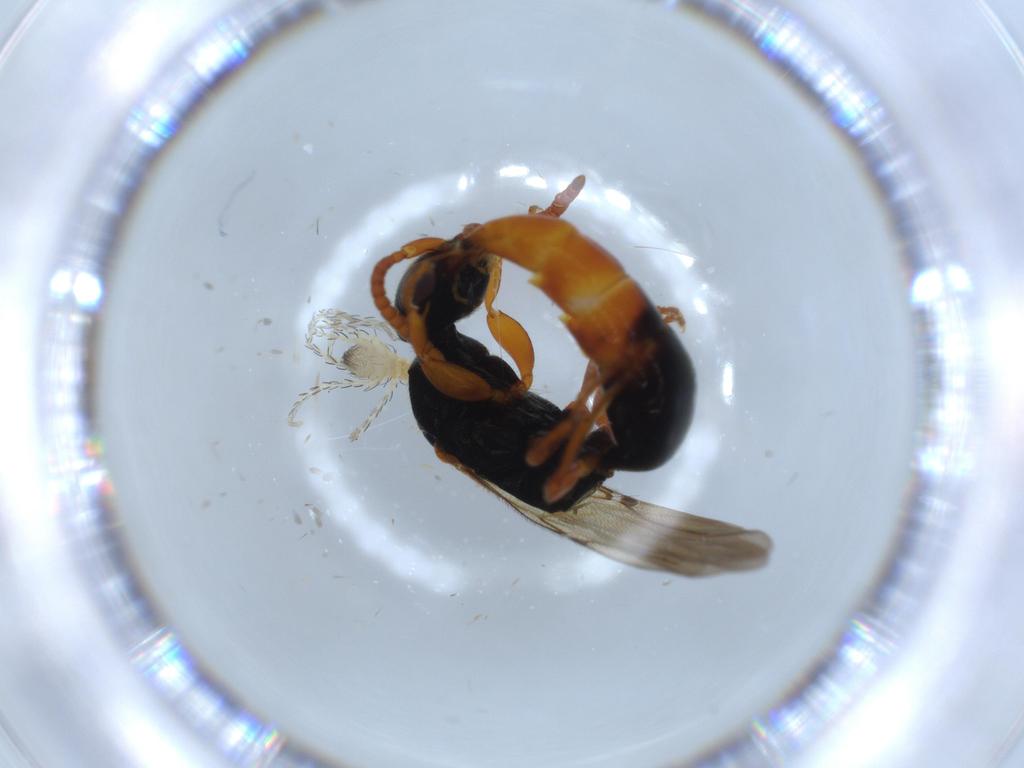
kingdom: Animalia
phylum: Arthropoda
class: Insecta
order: Hymenoptera
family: Bethylidae
